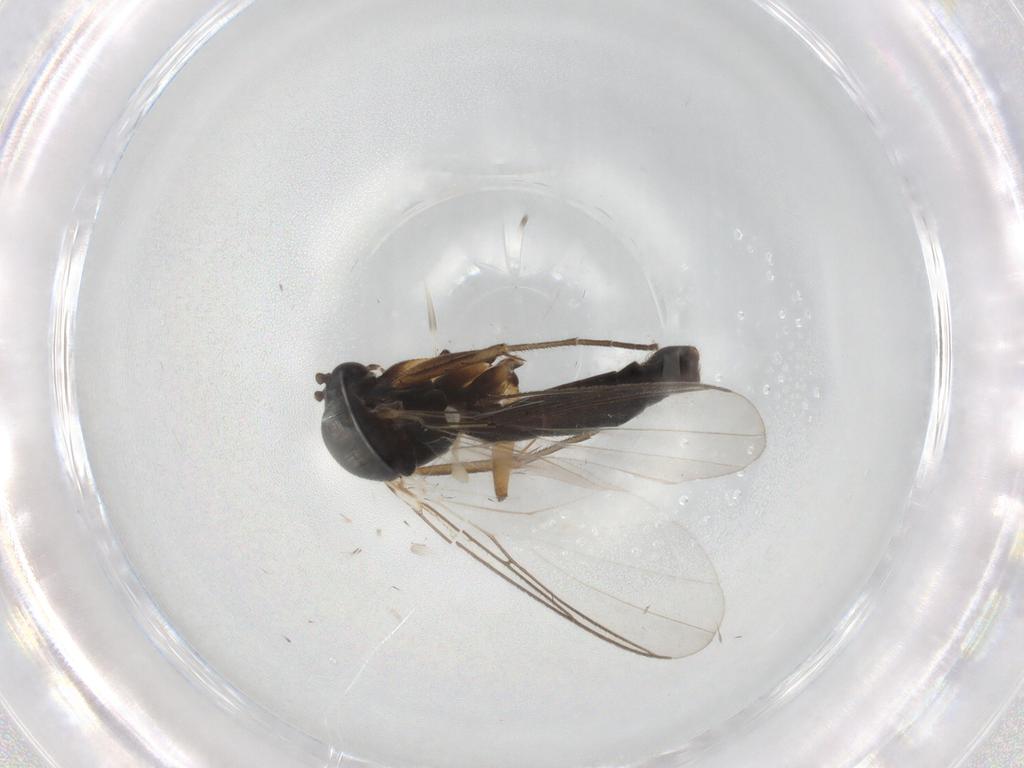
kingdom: Animalia
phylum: Arthropoda
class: Insecta
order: Diptera
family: Mycetophilidae
